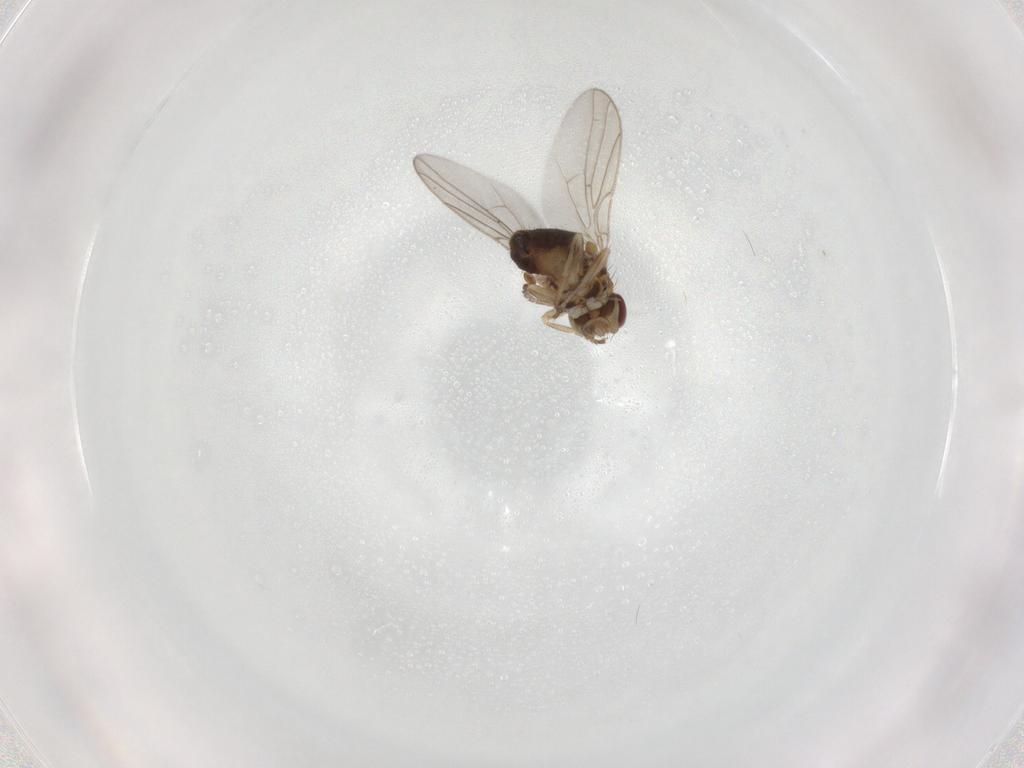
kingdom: Animalia
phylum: Arthropoda
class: Insecta
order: Diptera
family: Chloropidae
